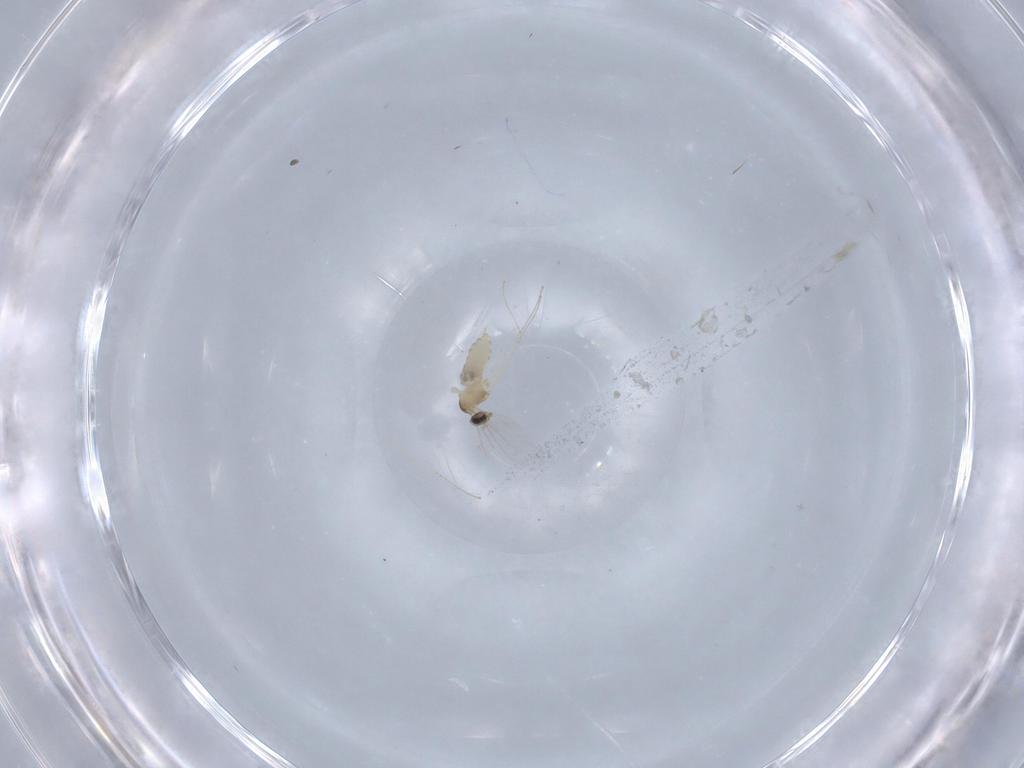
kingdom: Animalia
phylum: Arthropoda
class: Insecta
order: Diptera
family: Cecidomyiidae
